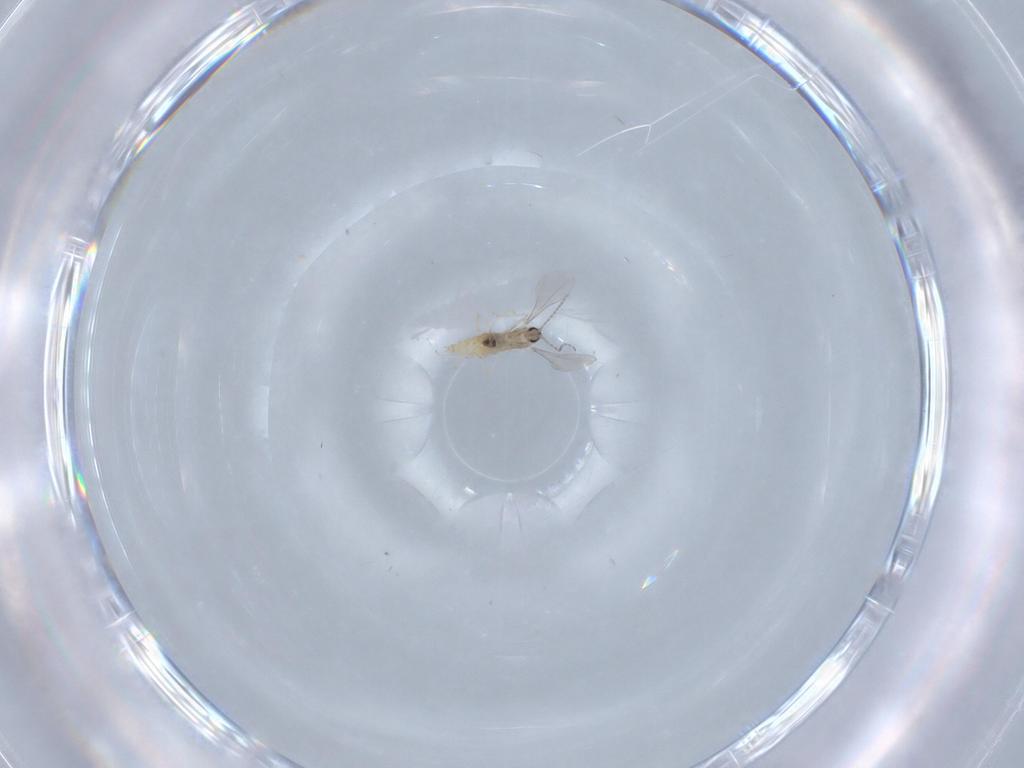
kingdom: Animalia
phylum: Arthropoda
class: Insecta
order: Diptera
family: Cecidomyiidae
